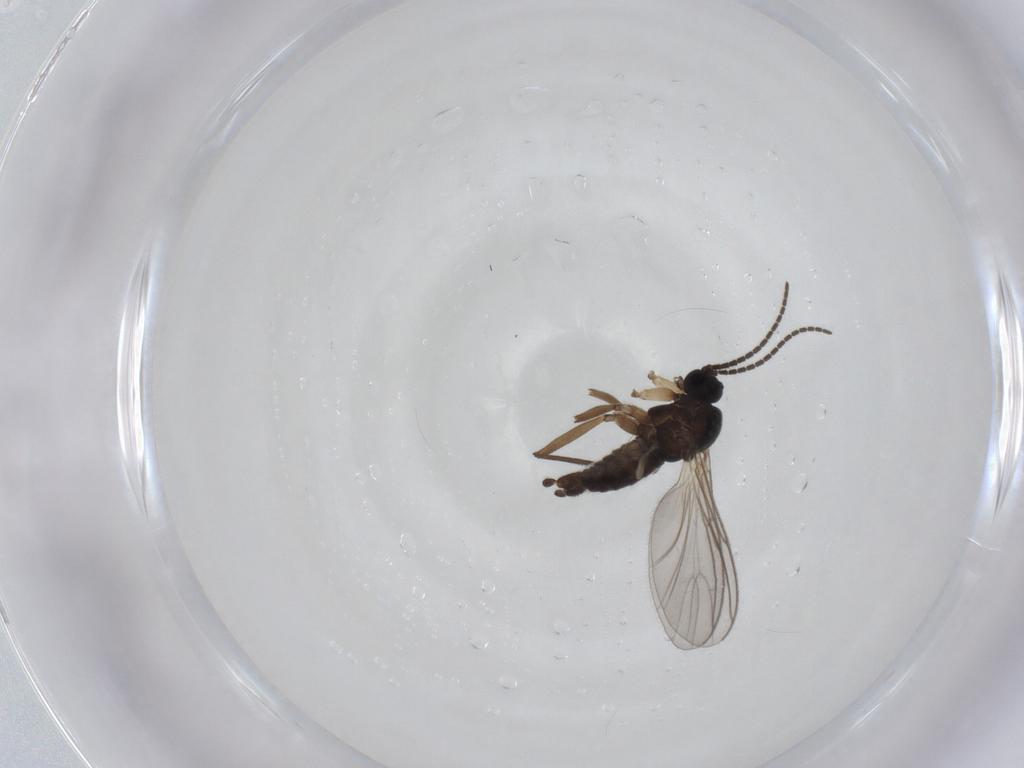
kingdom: Animalia
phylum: Arthropoda
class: Insecta
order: Diptera
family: Sciaridae
